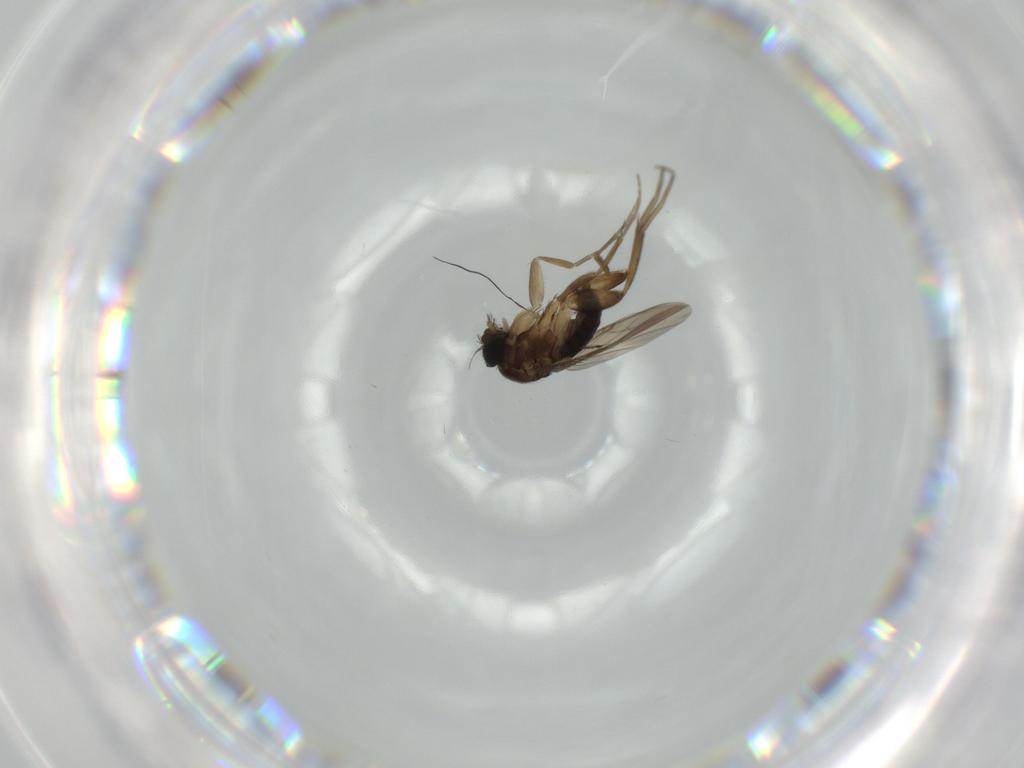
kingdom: Animalia
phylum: Arthropoda
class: Insecta
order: Diptera
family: Phoridae
